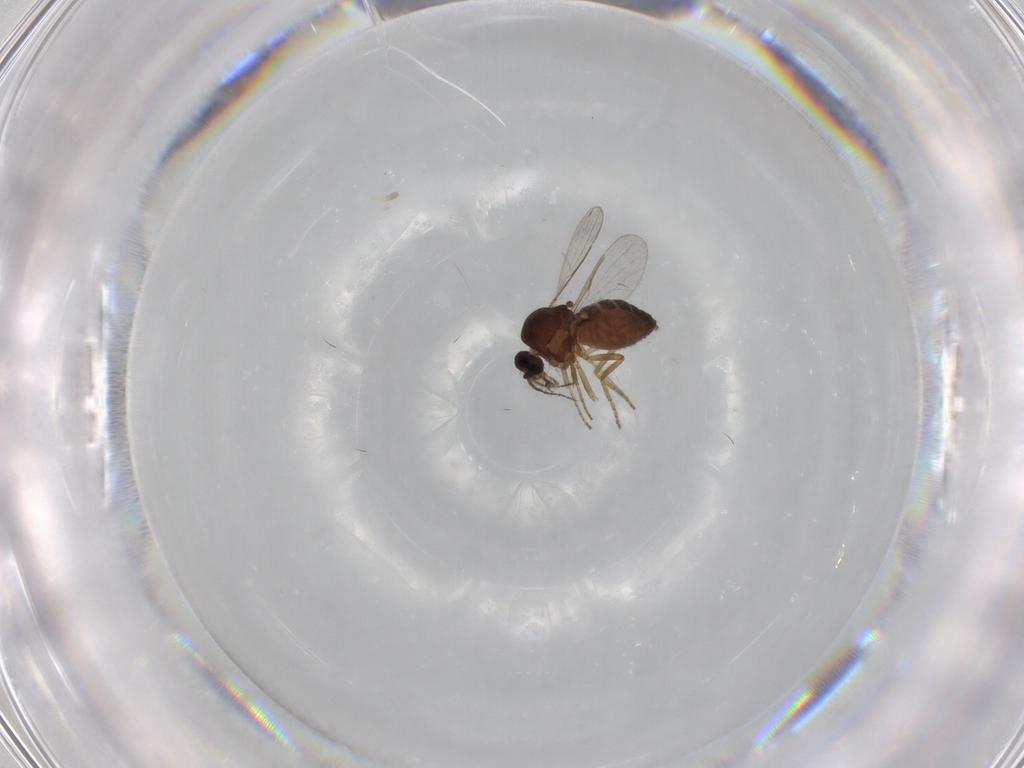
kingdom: Animalia
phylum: Arthropoda
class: Insecta
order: Diptera
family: Ceratopogonidae
